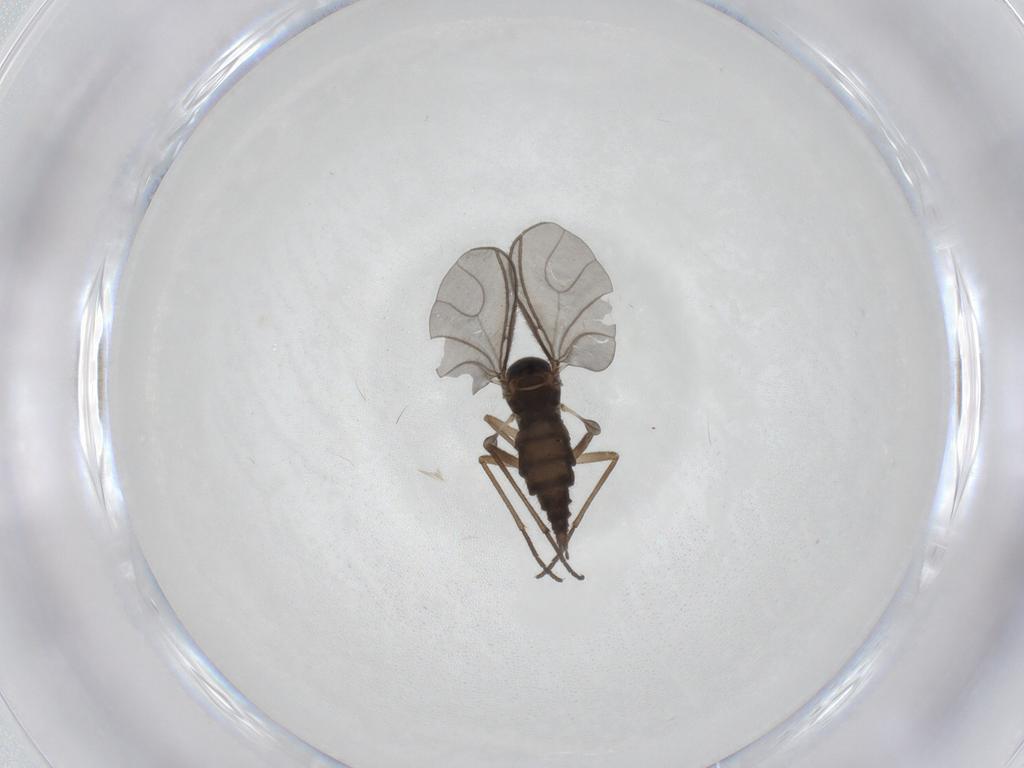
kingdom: Animalia
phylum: Arthropoda
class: Insecta
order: Diptera
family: Sciaridae
